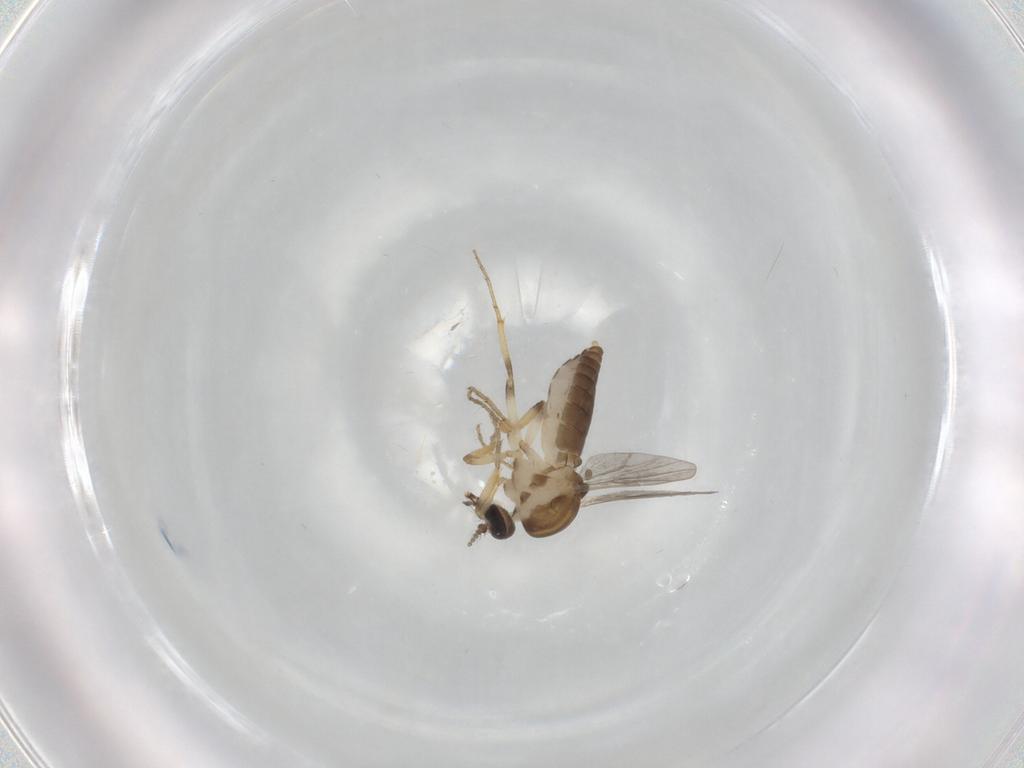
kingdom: Animalia
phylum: Arthropoda
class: Insecta
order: Diptera
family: Ceratopogonidae
